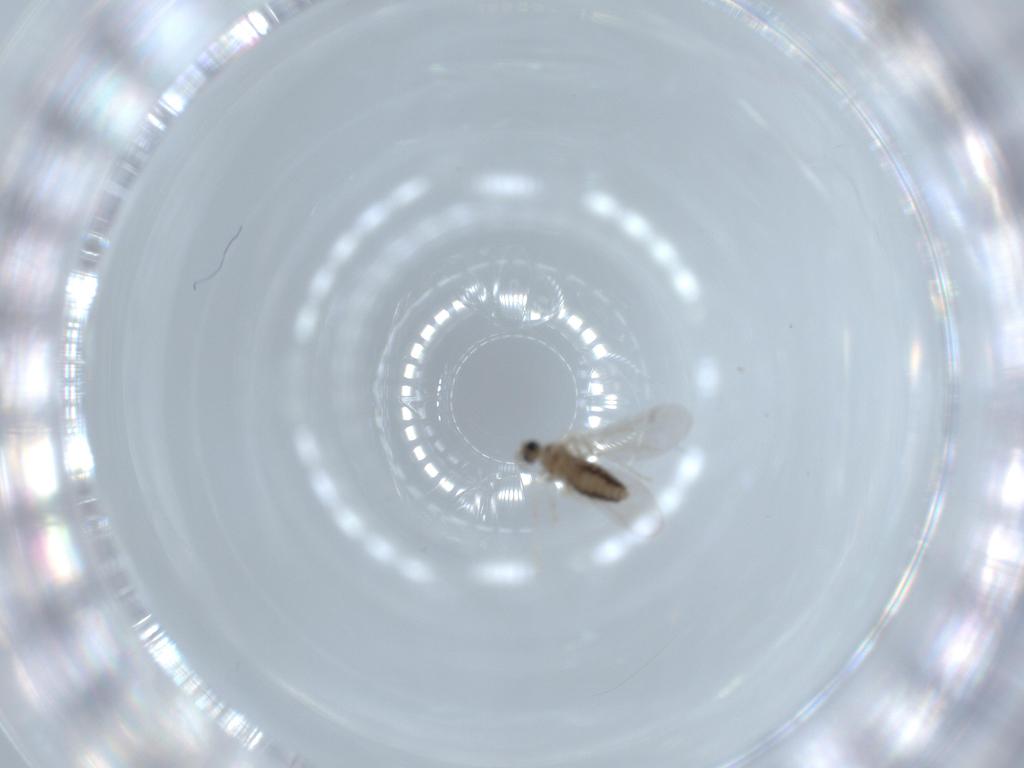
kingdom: Animalia
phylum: Arthropoda
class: Insecta
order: Diptera
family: Cecidomyiidae
